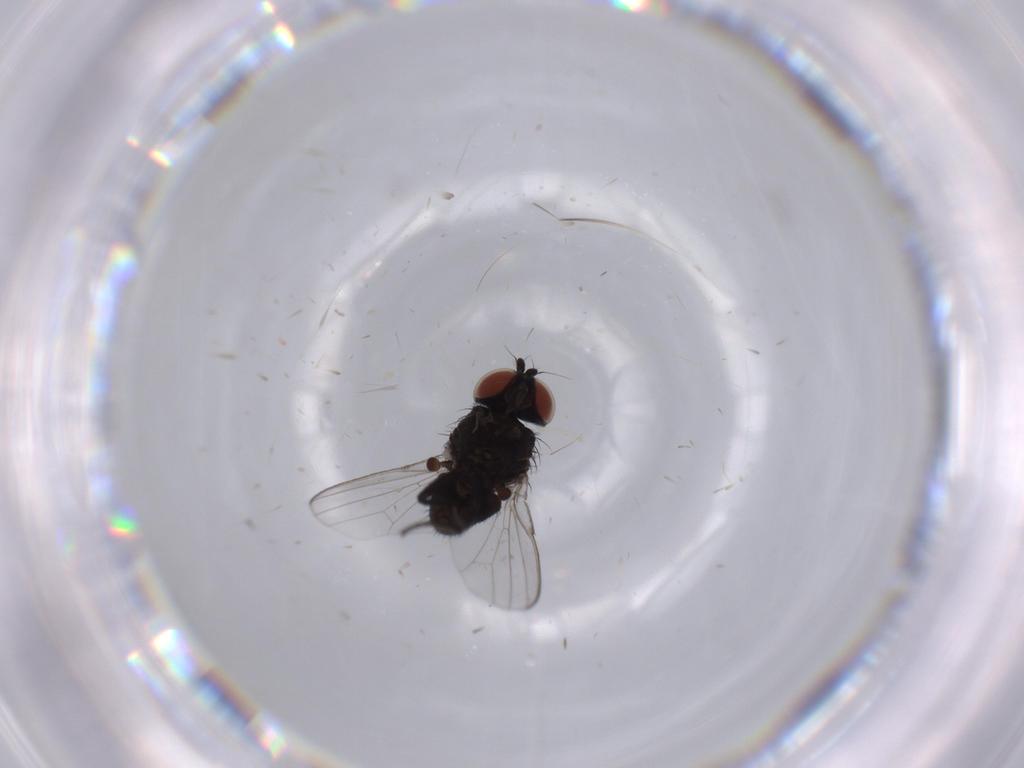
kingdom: Animalia
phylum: Arthropoda
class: Insecta
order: Diptera
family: Milichiidae
